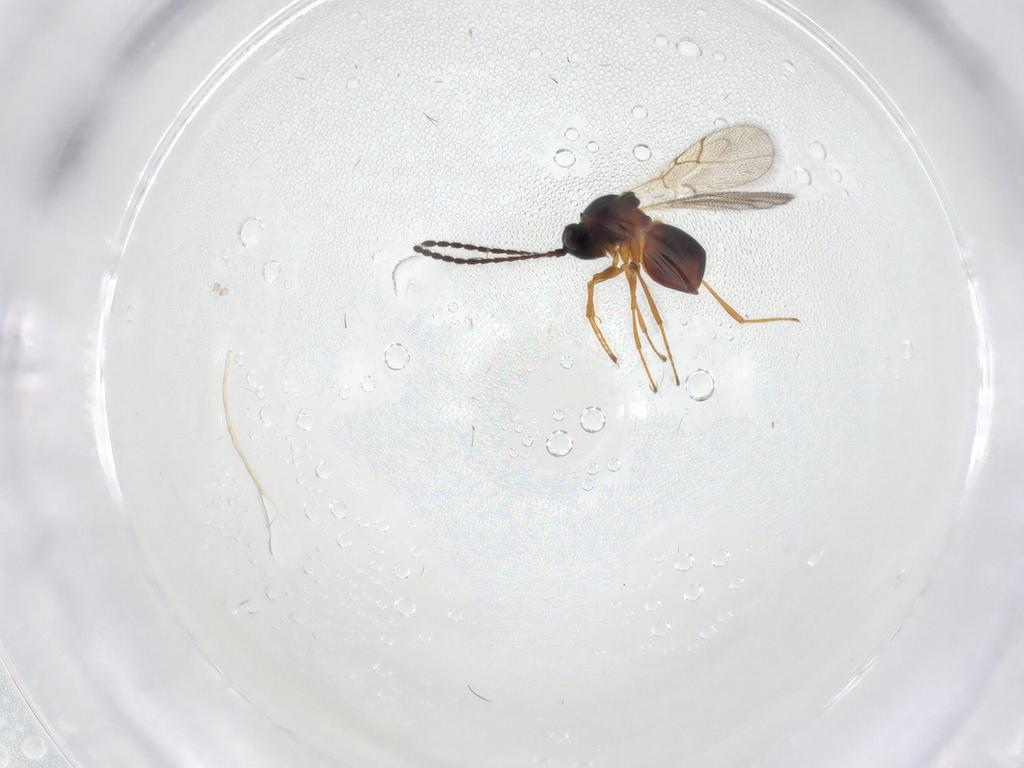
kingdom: Animalia
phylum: Arthropoda
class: Insecta
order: Hymenoptera
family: Figitidae
